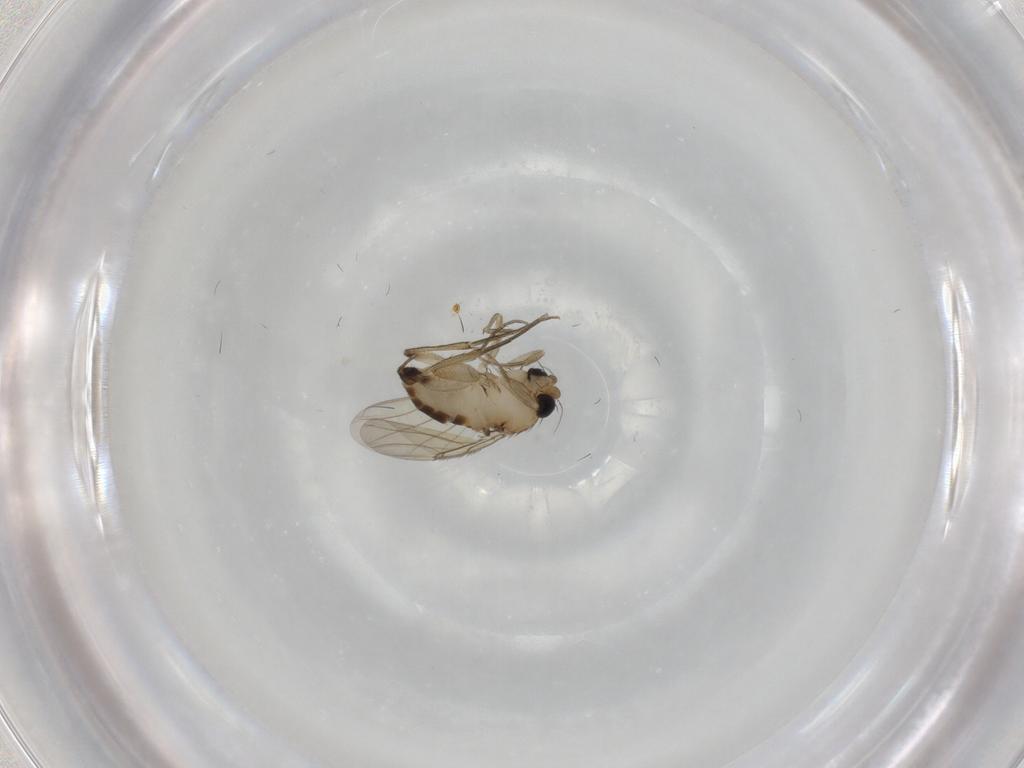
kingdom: Animalia
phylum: Arthropoda
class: Insecta
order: Diptera
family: Phoridae
